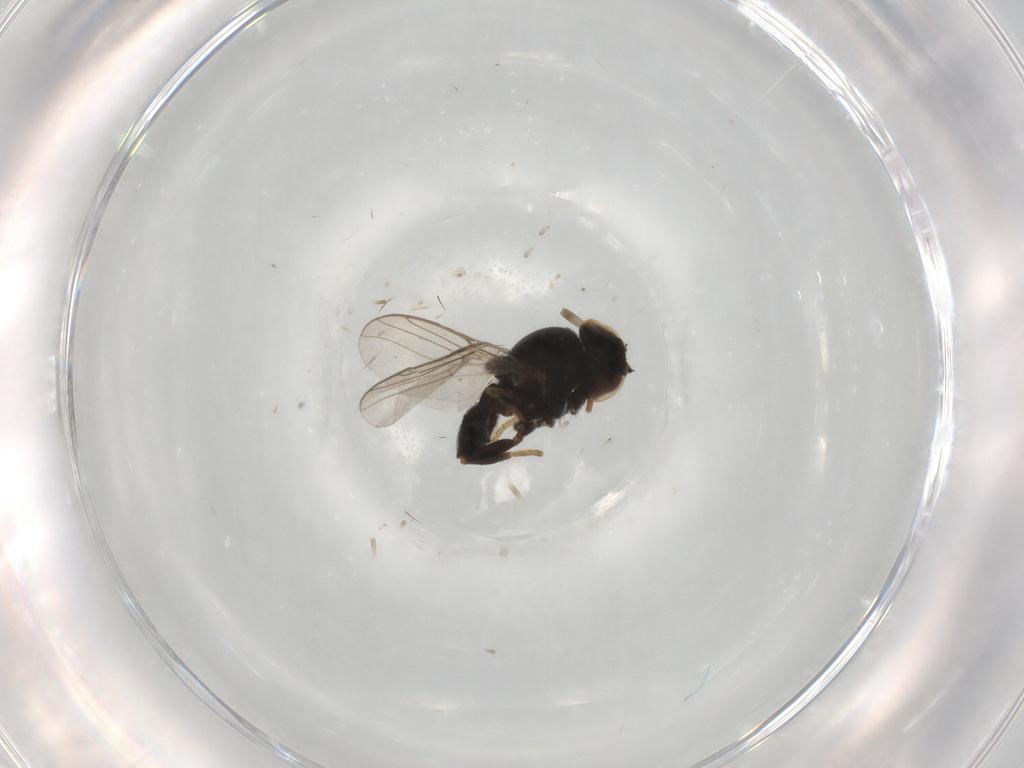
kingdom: Animalia
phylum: Arthropoda
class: Insecta
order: Diptera
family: Chloropidae
